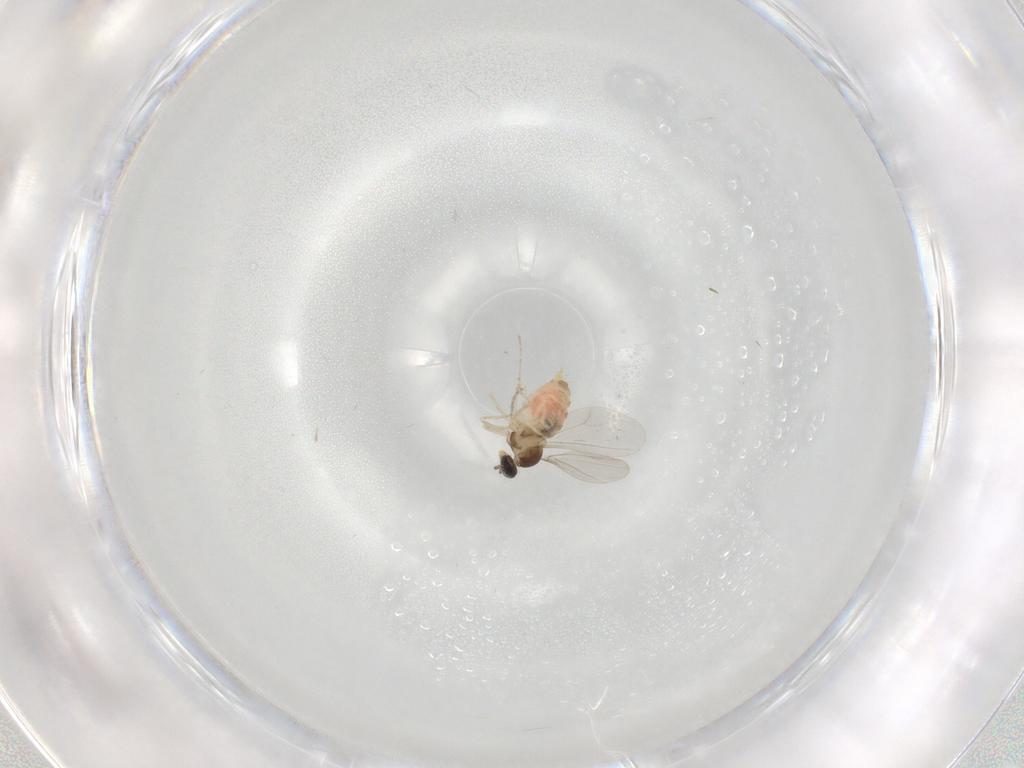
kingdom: Animalia
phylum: Arthropoda
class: Insecta
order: Diptera
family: Cecidomyiidae
